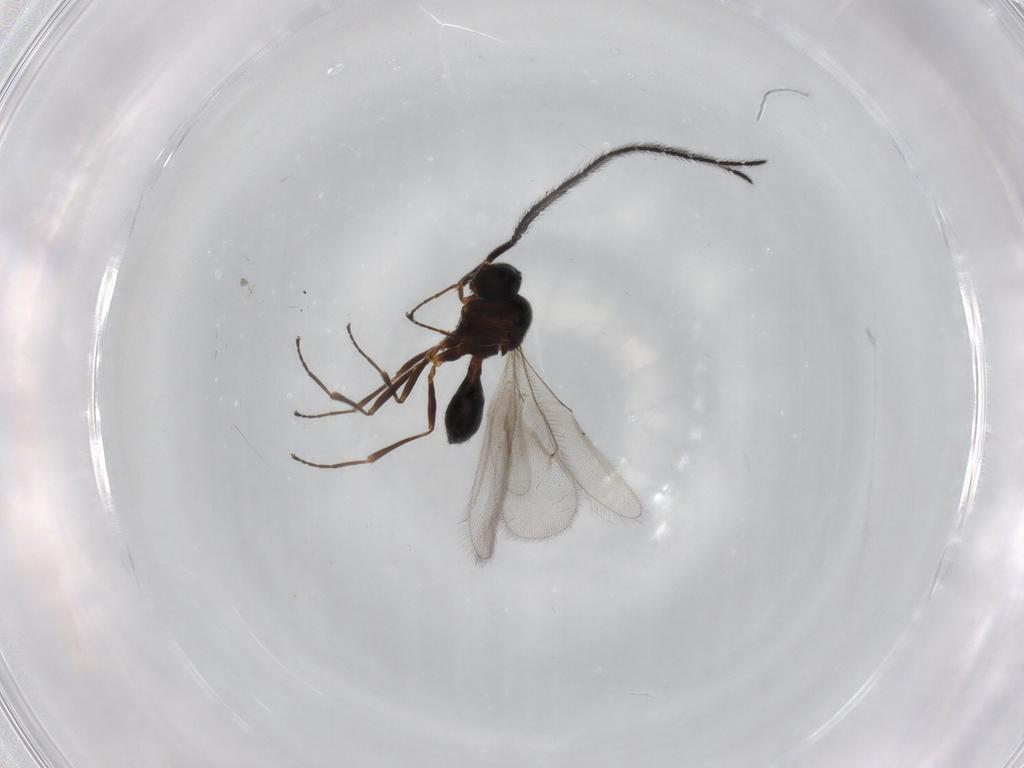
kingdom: Animalia
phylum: Arthropoda
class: Insecta
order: Hymenoptera
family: Scelionidae
